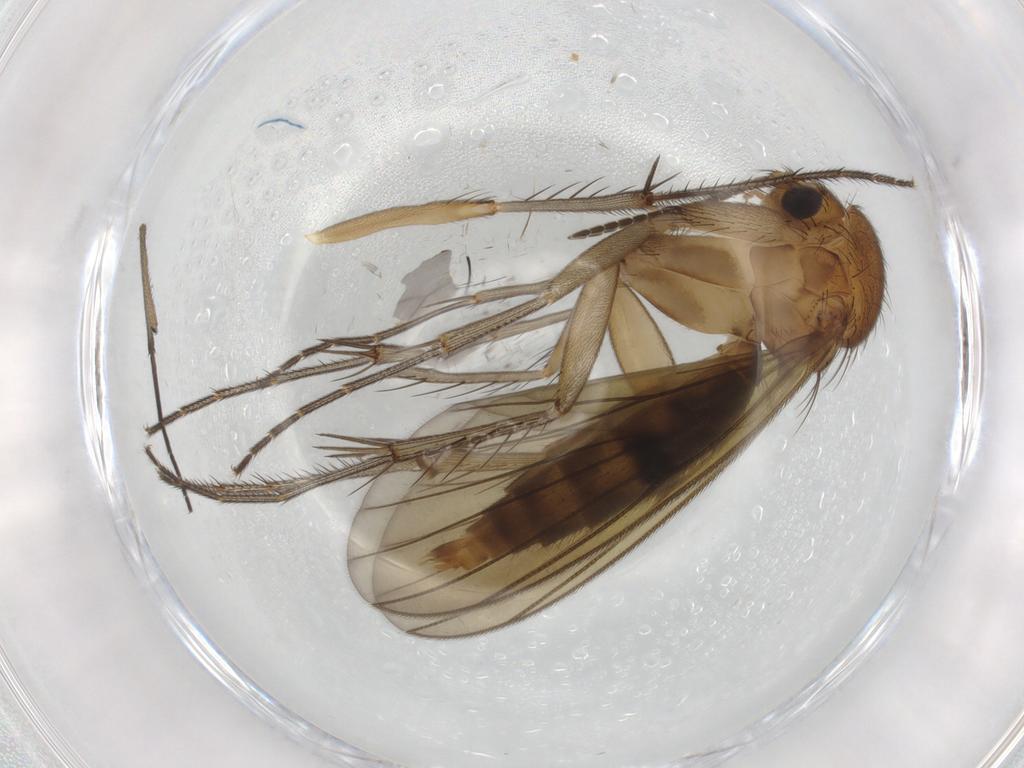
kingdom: Animalia
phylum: Arthropoda
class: Insecta
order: Diptera
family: Sciaridae
